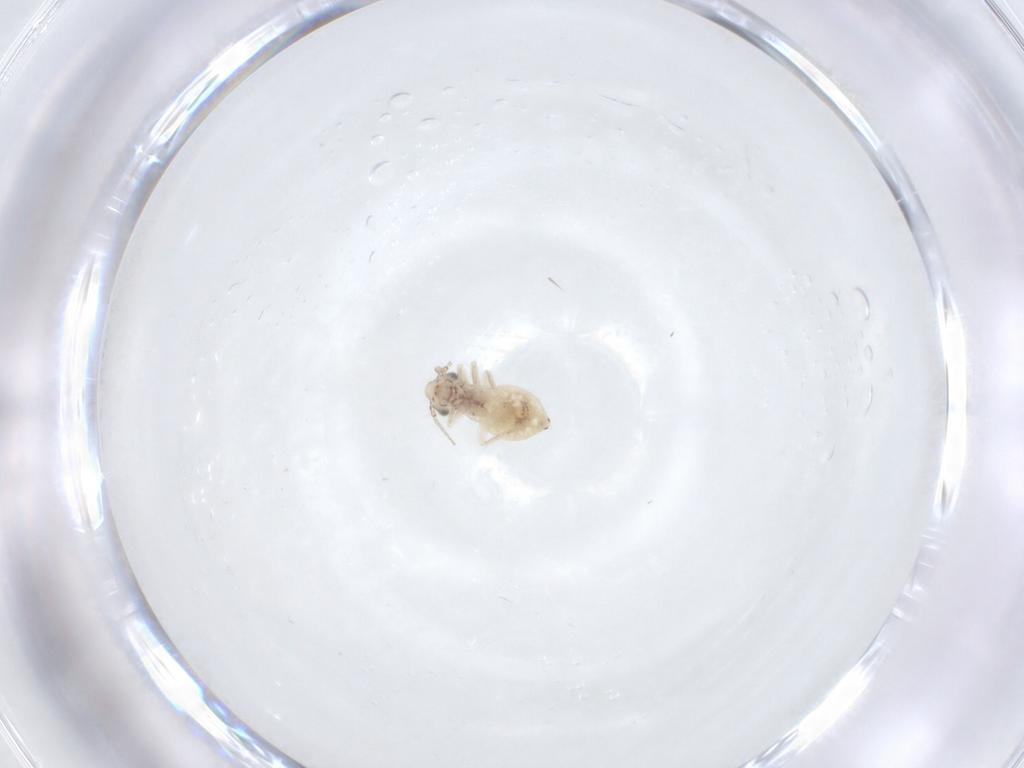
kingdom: Animalia
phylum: Arthropoda
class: Insecta
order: Psocodea
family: Lepidopsocidae
